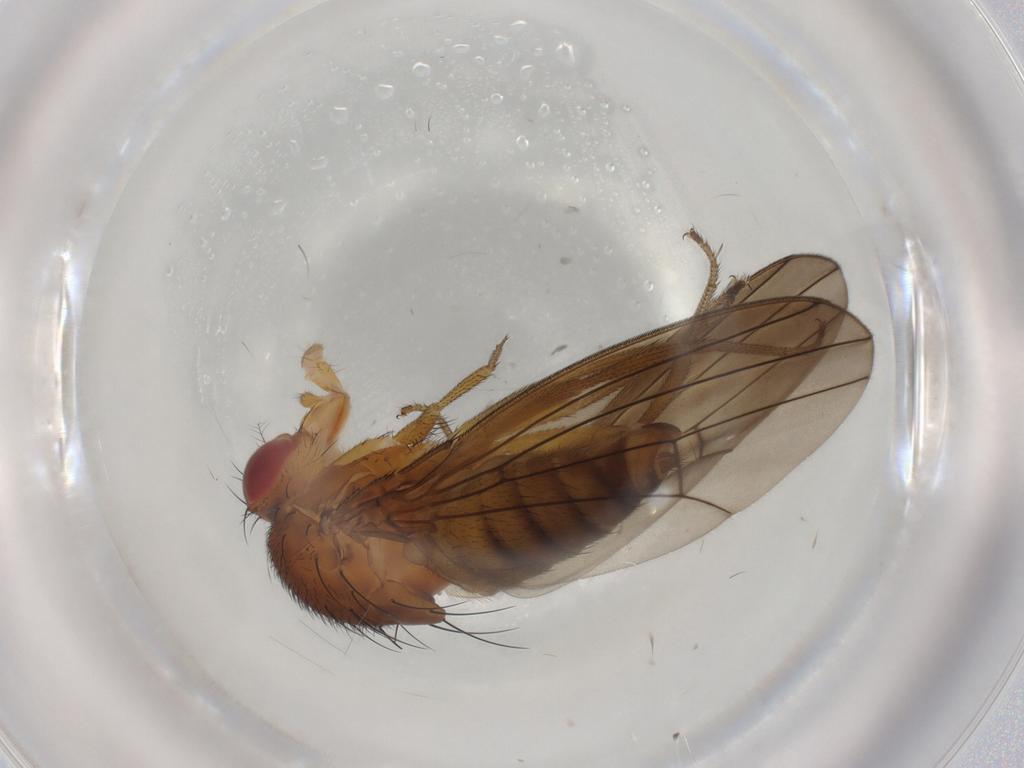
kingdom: Animalia
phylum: Arthropoda
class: Insecta
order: Diptera
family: Drosophilidae
